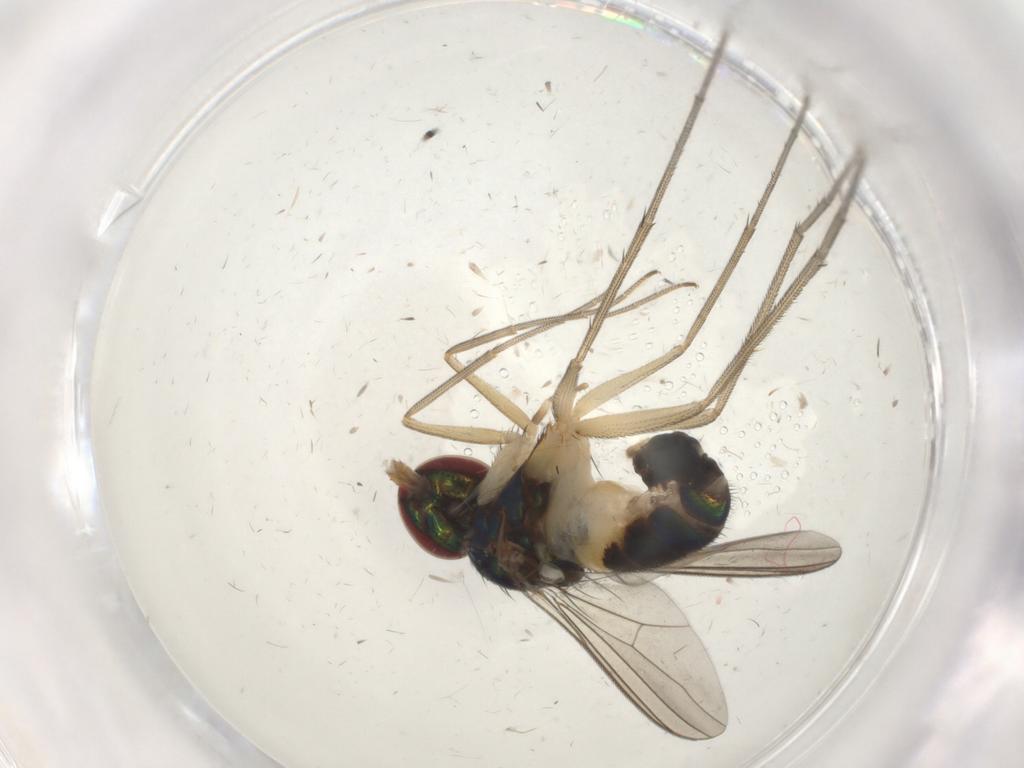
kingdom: Animalia
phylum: Arthropoda
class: Insecta
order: Diptera
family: Dolichopodidae
